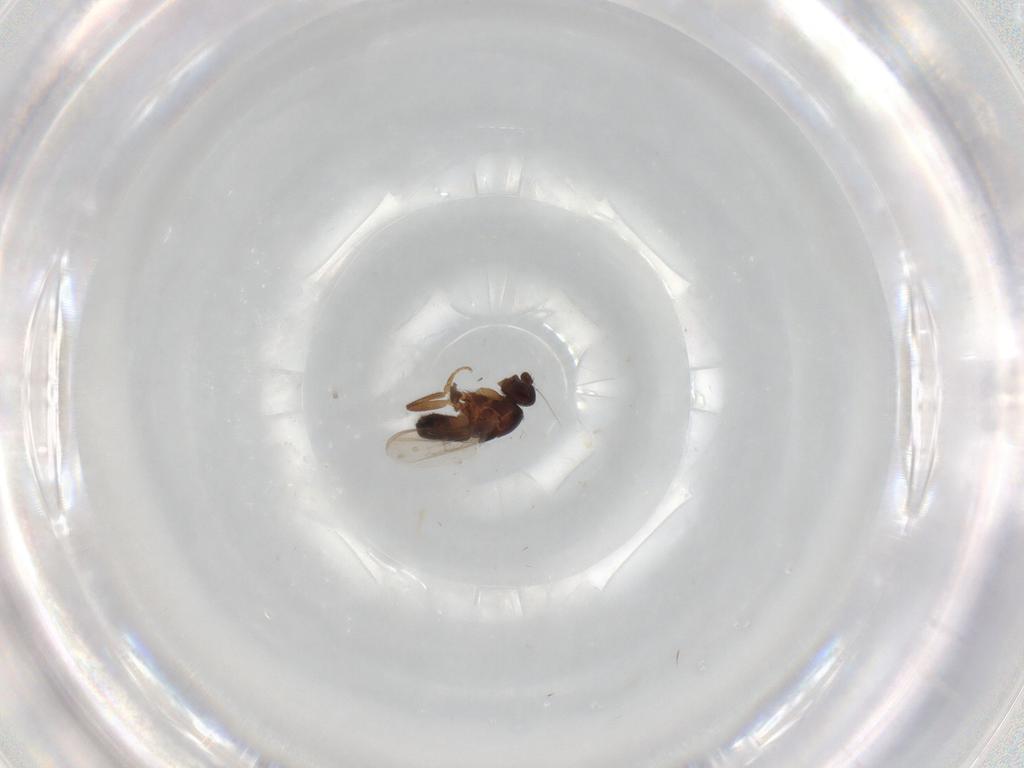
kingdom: Animalia
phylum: Arthropoda
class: Insecta
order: Diptera
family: Sphaeroceridae
